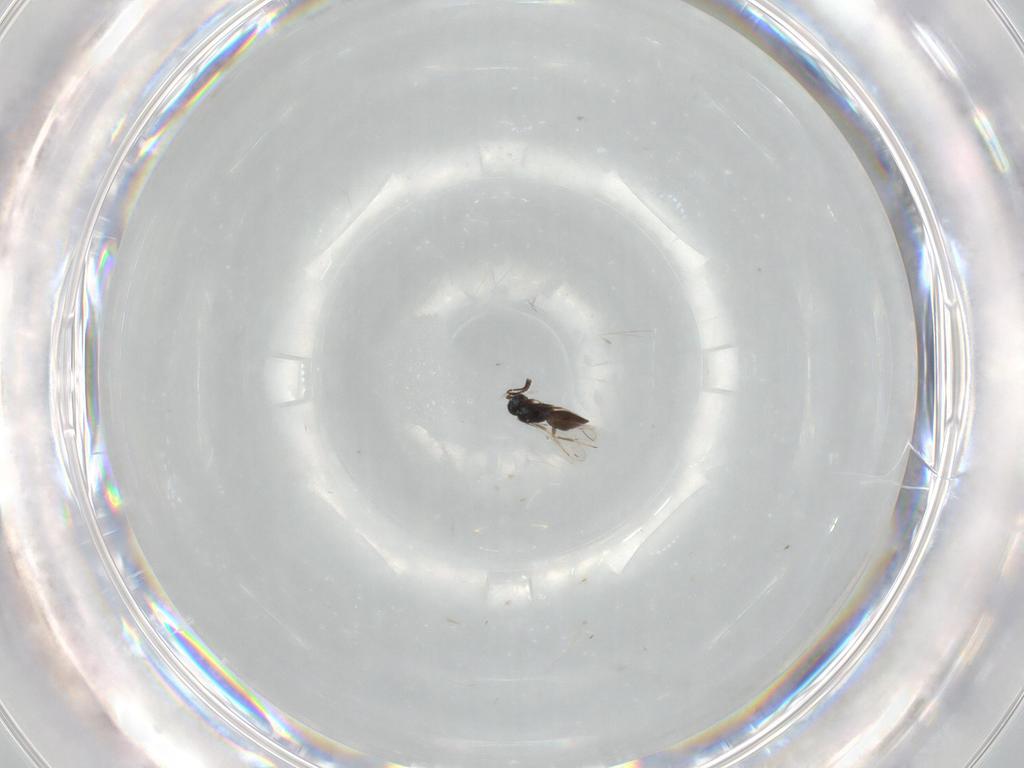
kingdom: Animalia
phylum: Arthropoda
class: Insecta
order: Hymenoptera
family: Scelionidae
